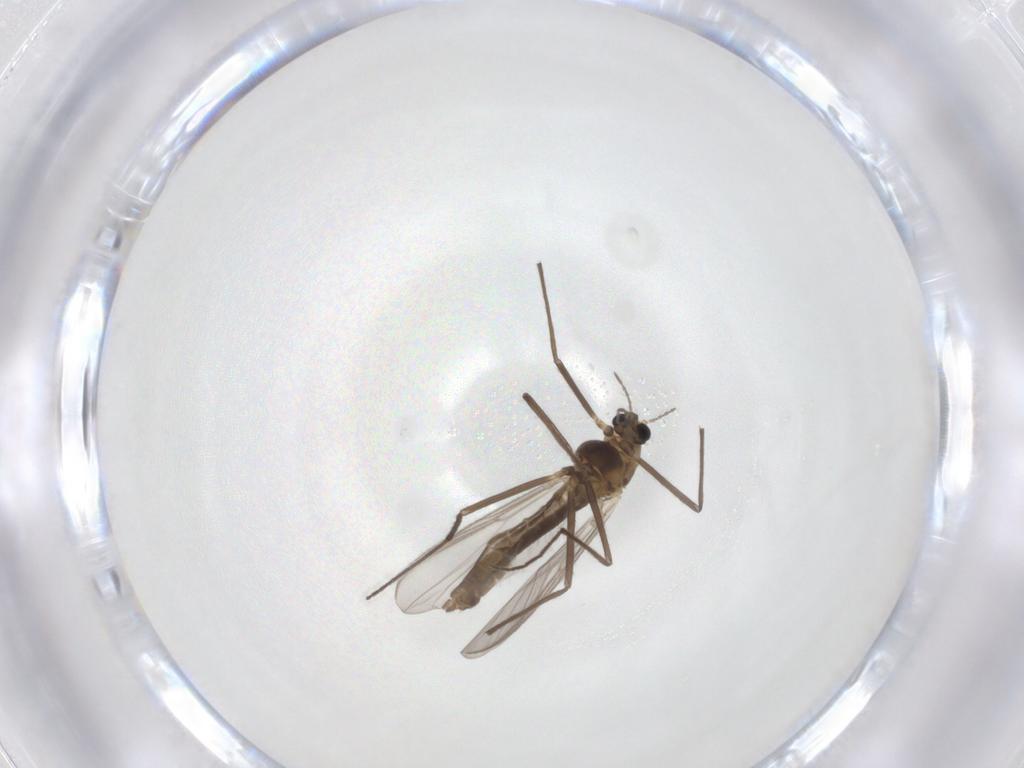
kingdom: Animalia
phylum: Arthropoda
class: Insecta
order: Diptera
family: Chironomidae
